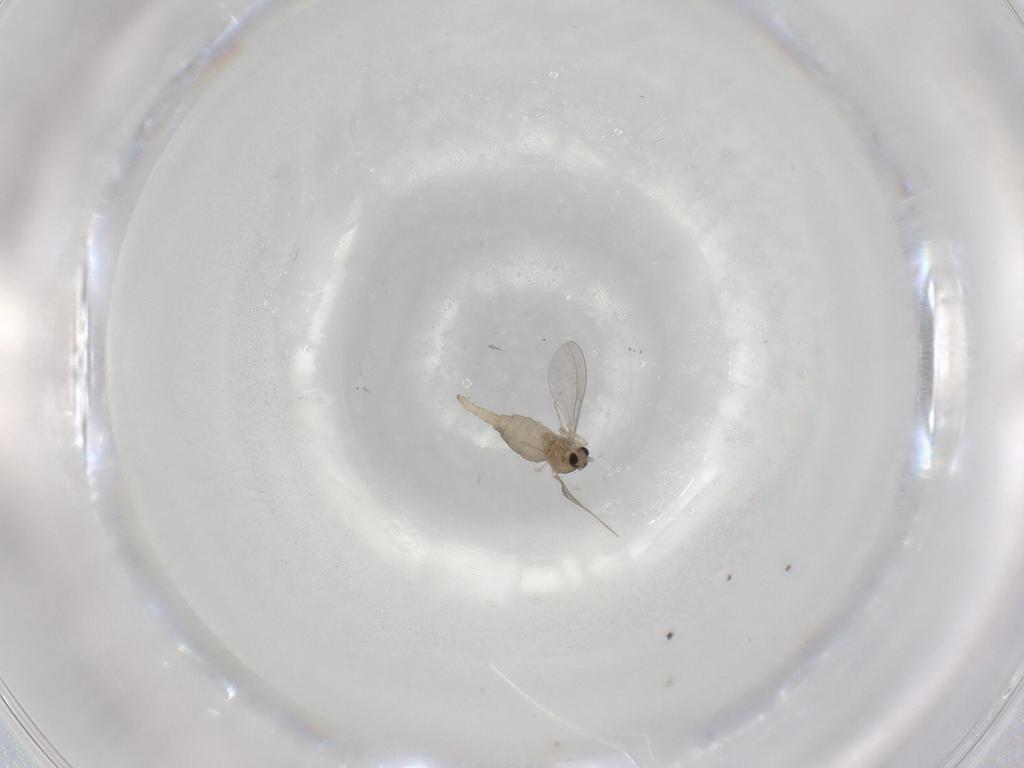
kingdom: Animalia
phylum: Arthropoda
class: Insecta
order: Diptera
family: Cecidomyiidae
